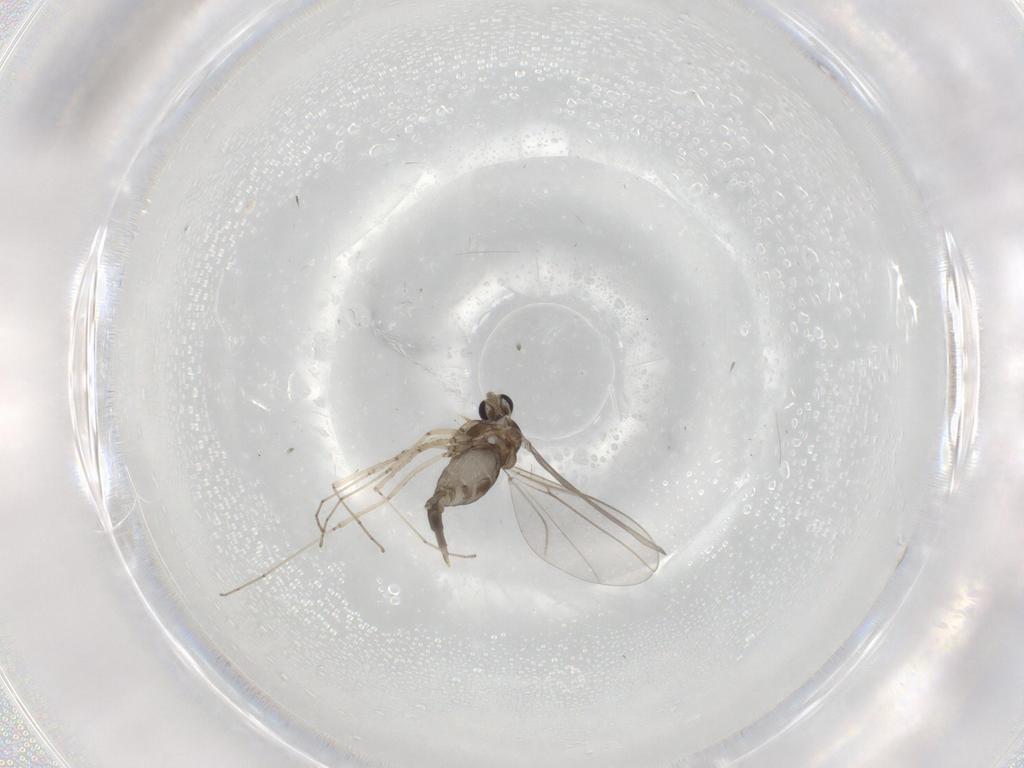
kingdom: Animalia
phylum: Arthropoda
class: Insecta
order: Diptera
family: Cecidomyiidae
